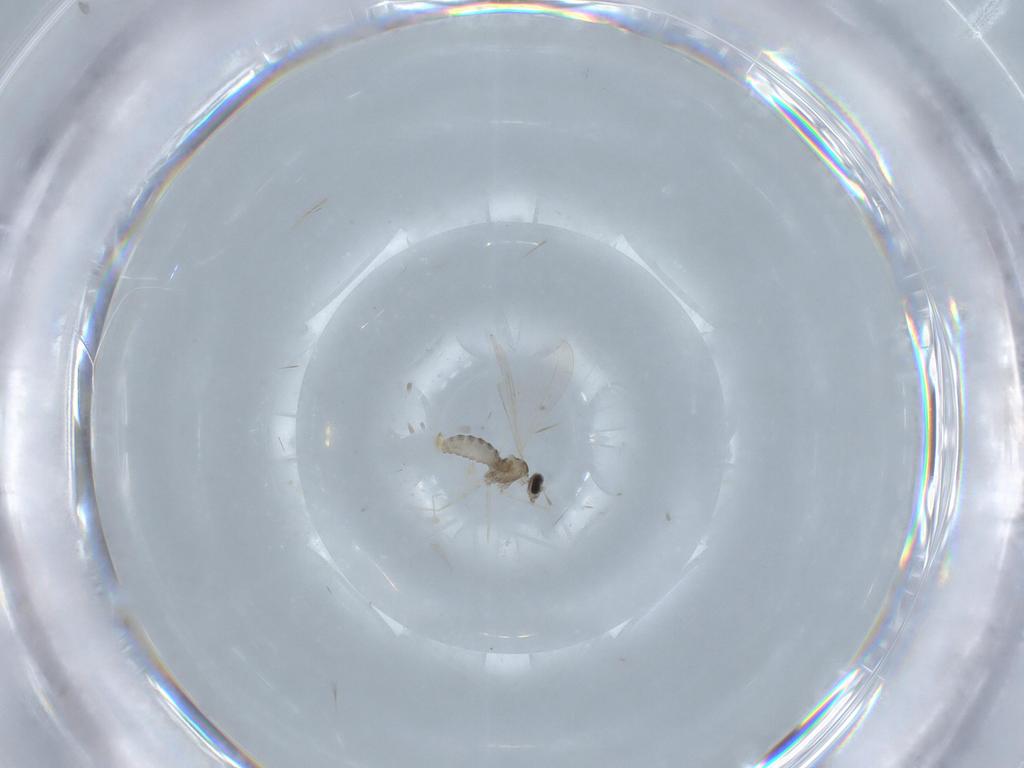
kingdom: Animalia
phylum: Arthropoda
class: Insecta
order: Diptera
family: Cecidomyiidae
